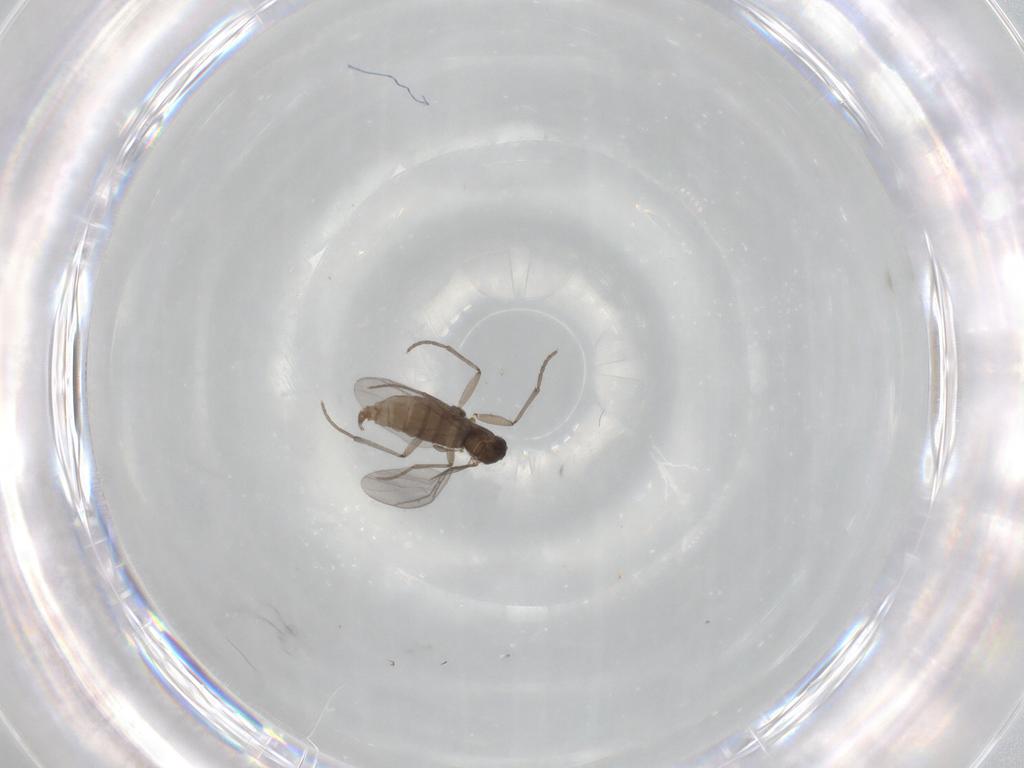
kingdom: Animalia
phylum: Arthropoda
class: Insecta
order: Diptera
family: Sciaridae
